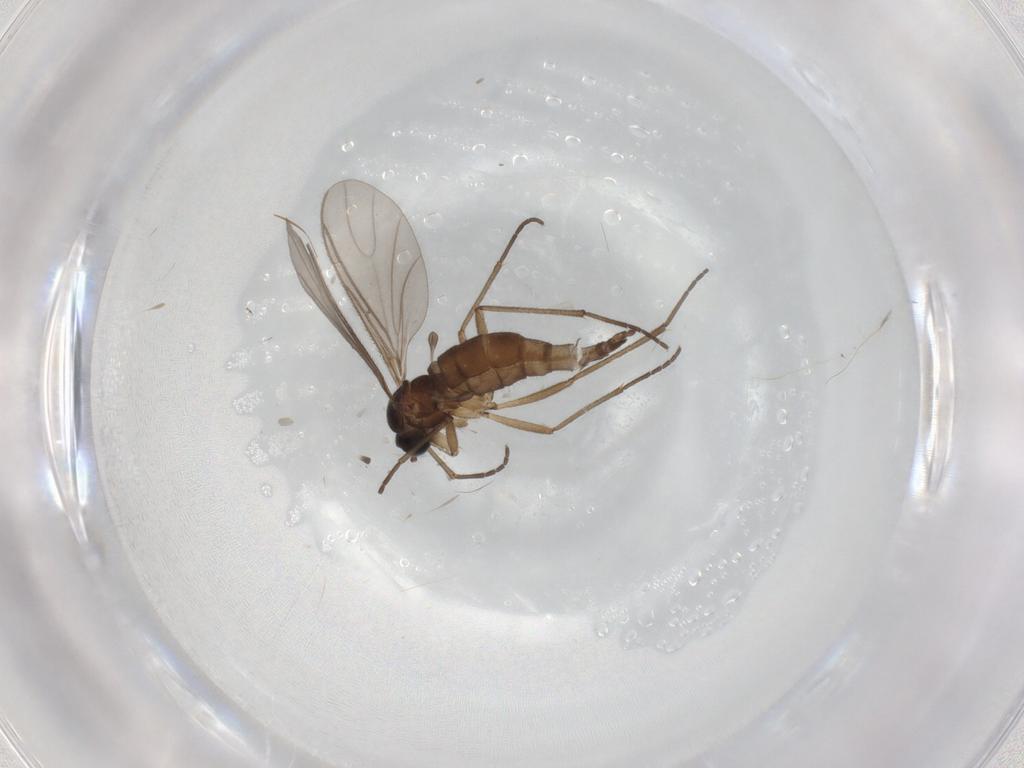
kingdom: Animalia
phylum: Arthropoda
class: Insecta
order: Diptera
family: Sciaridae
